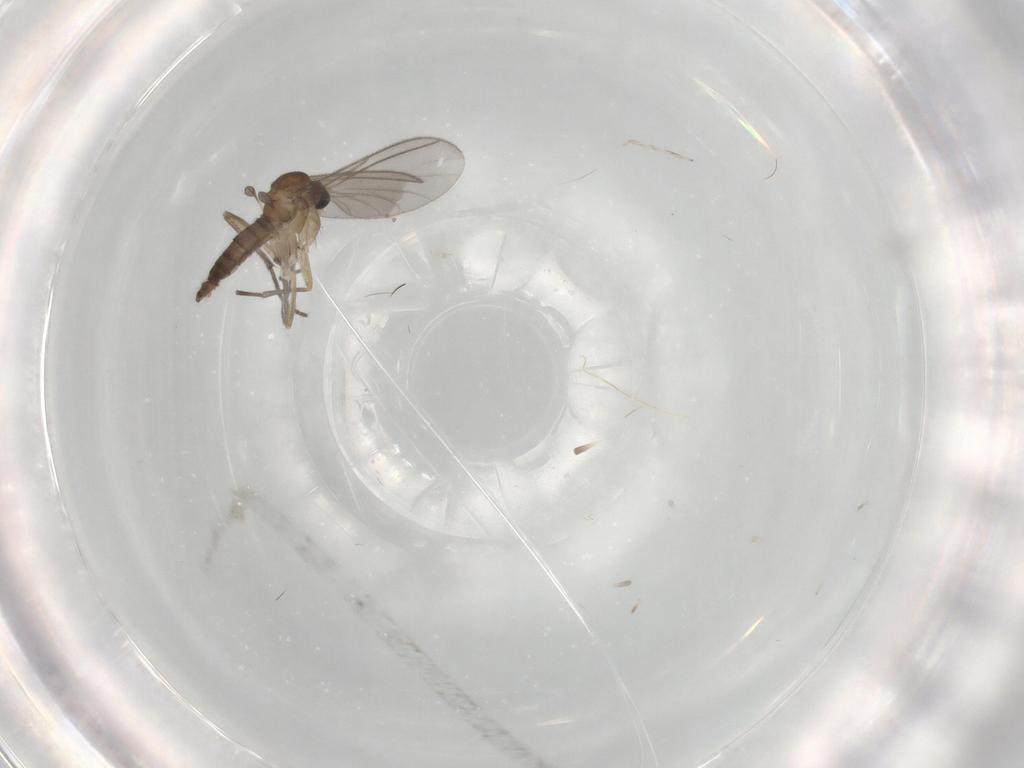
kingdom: Animalia
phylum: Arthropoda
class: Insecta
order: Diptera
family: Sciaridae
